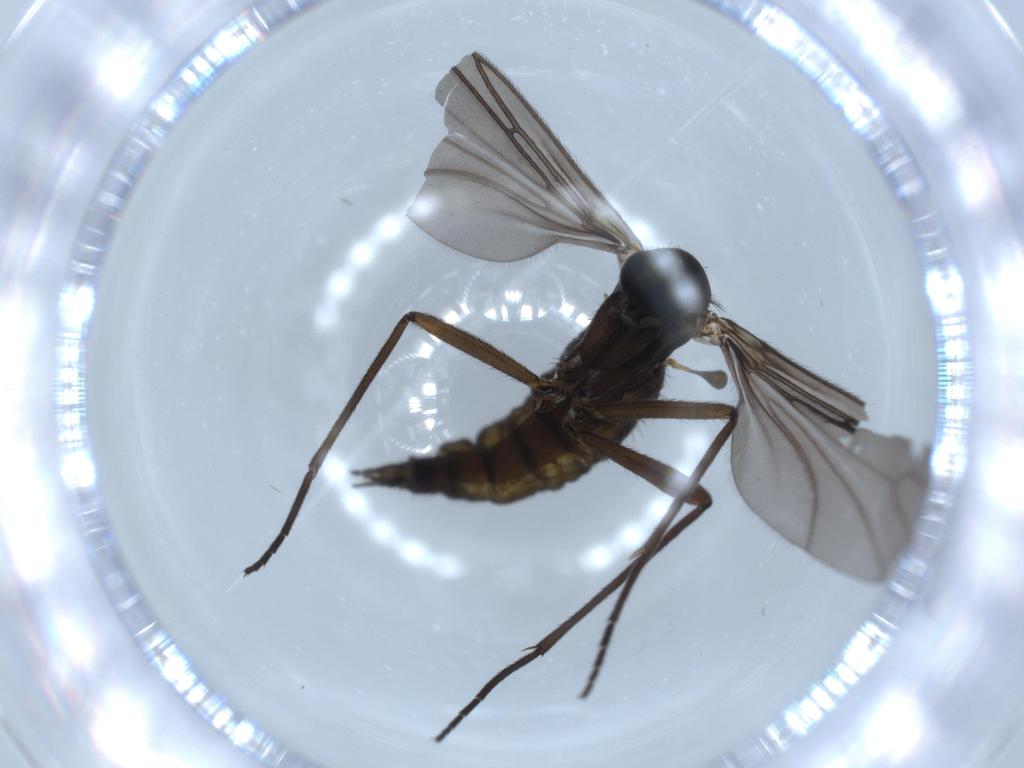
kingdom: Animalia
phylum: Arthropoda
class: Insecta
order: Diptera
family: Sciaridae
